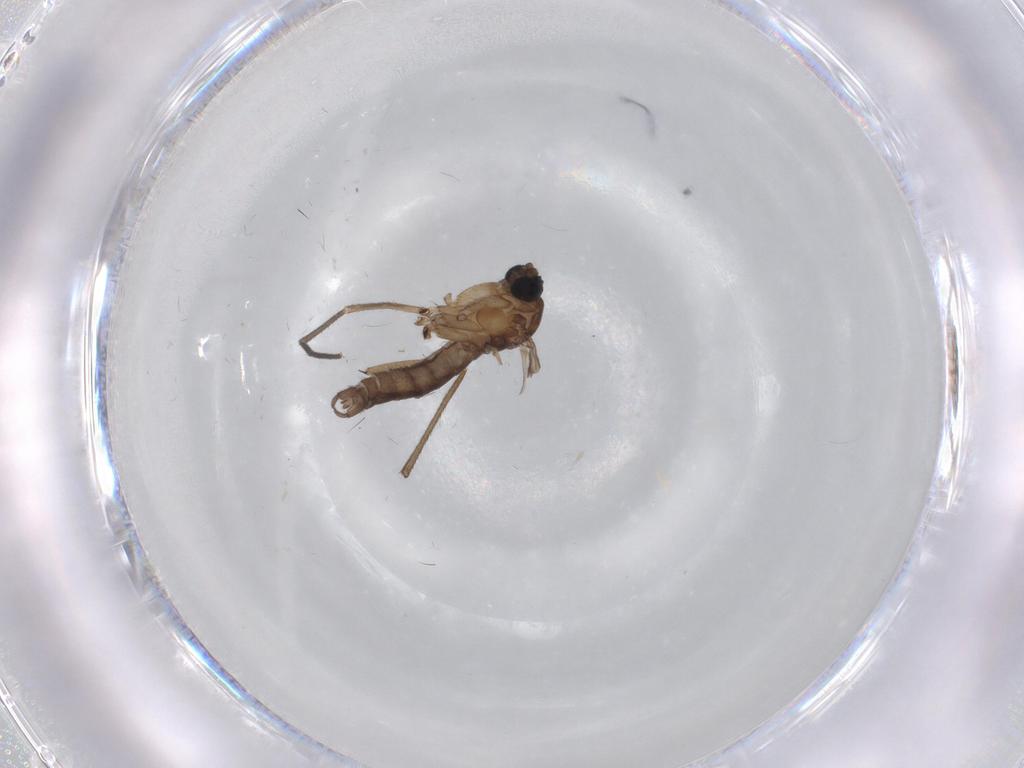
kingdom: Animalia
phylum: Arthropoda
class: Insecta
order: Diptera
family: Sciaridae
